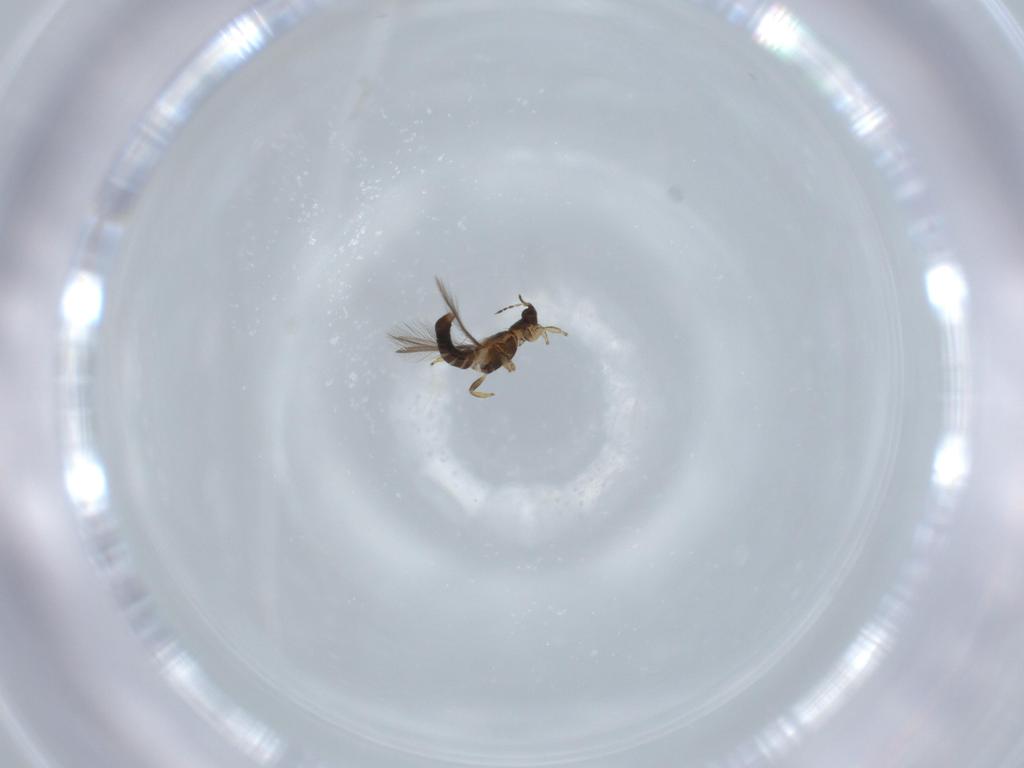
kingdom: Animalia
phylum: Arthropoda
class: Insecta
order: Thysanoptera
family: Thripidae
